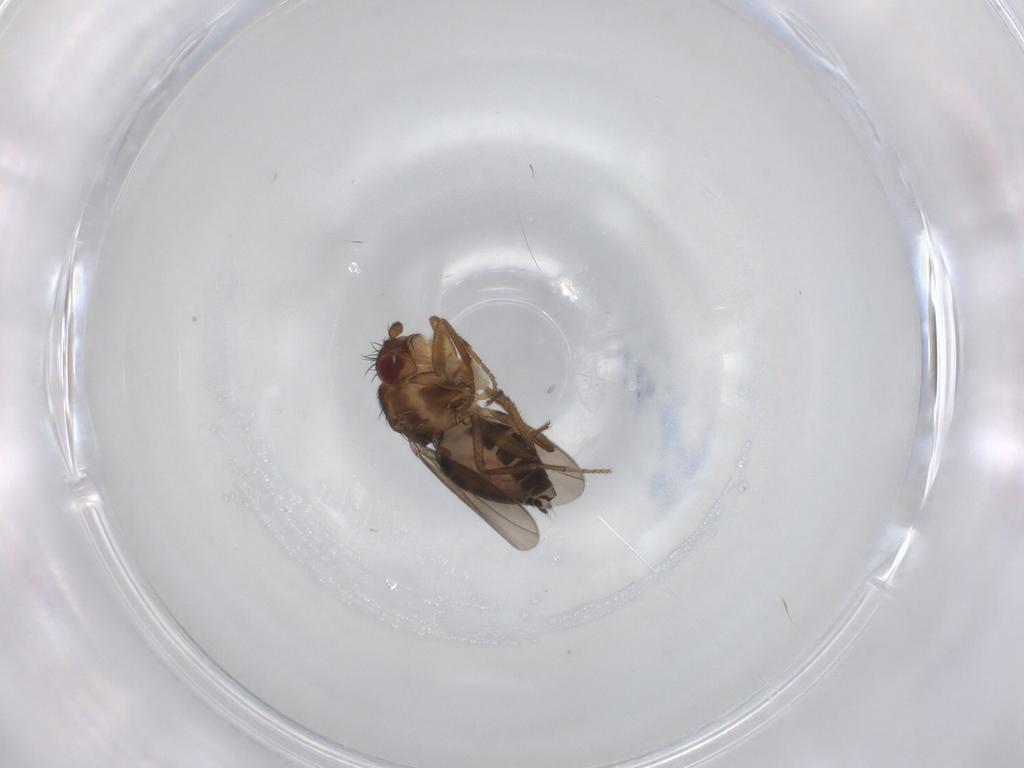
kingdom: Animalia
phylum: Arthropoda
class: Insecta
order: Diptera
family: Sphaeroceridae
